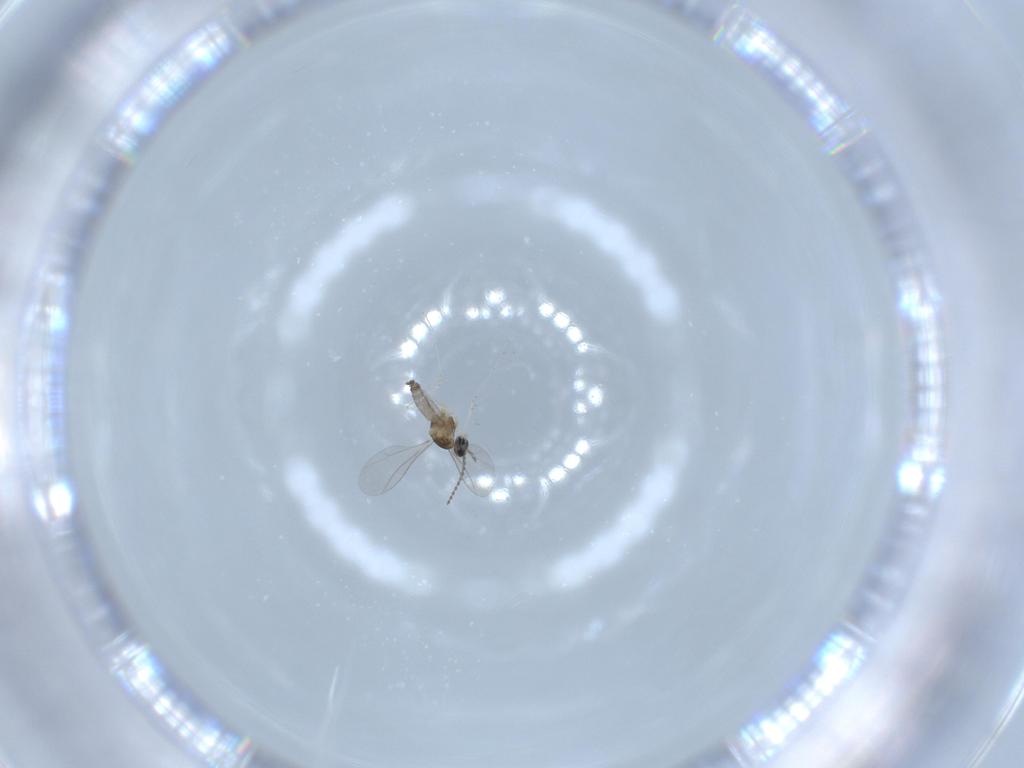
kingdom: Animalia
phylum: Arthropoda
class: Insecta
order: Diptera
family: Cecidomyiidae
